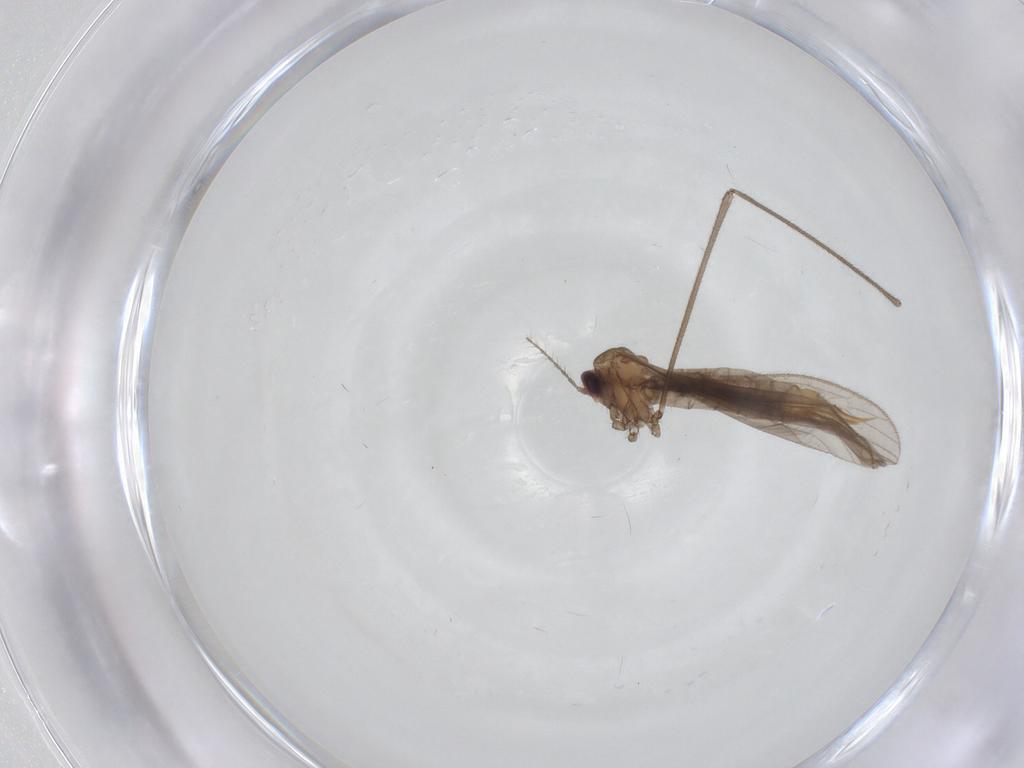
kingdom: Animalia
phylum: Arthropoda
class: Insecta
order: Diptera
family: Limoniidae
